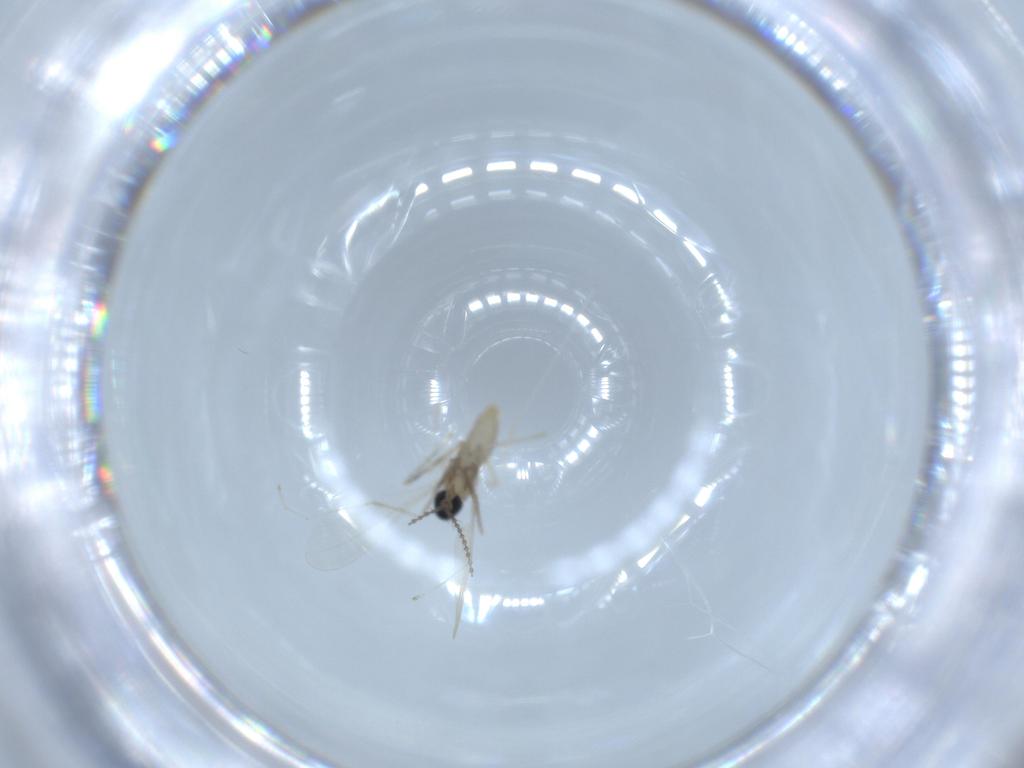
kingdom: Animalia
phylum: Arthropoda
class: Insecta
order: Diptera
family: Cecidomyiidae
